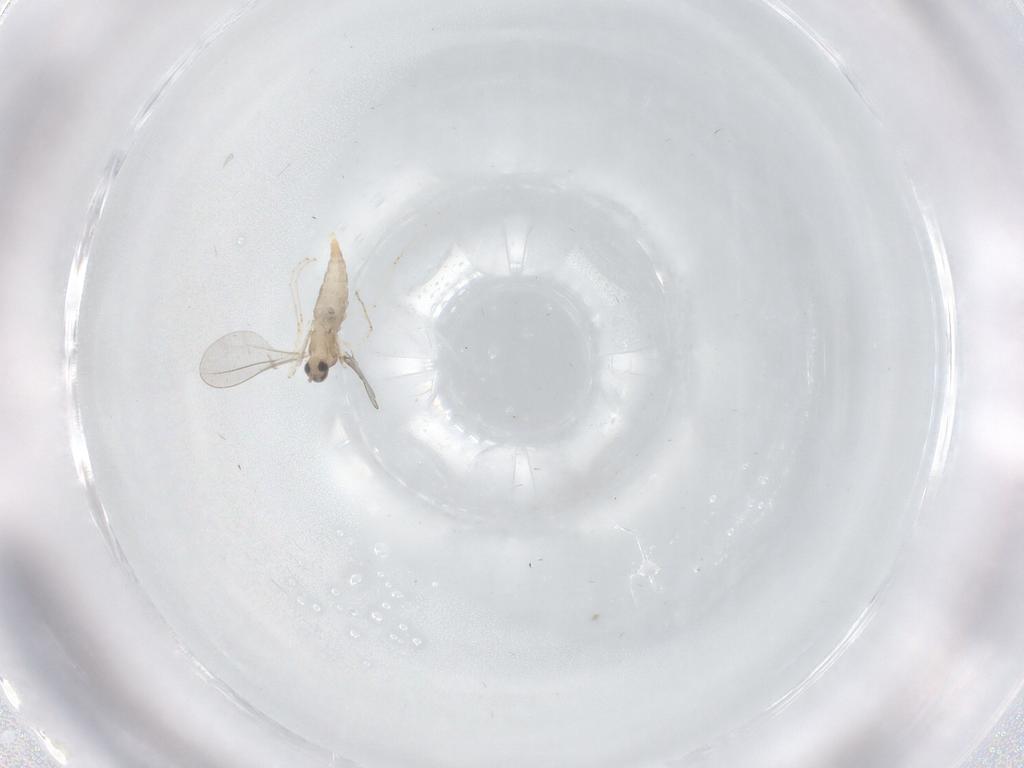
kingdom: Animalia
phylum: Arthropoda
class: Insecta
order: Diptera
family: Cecidomyiidae
